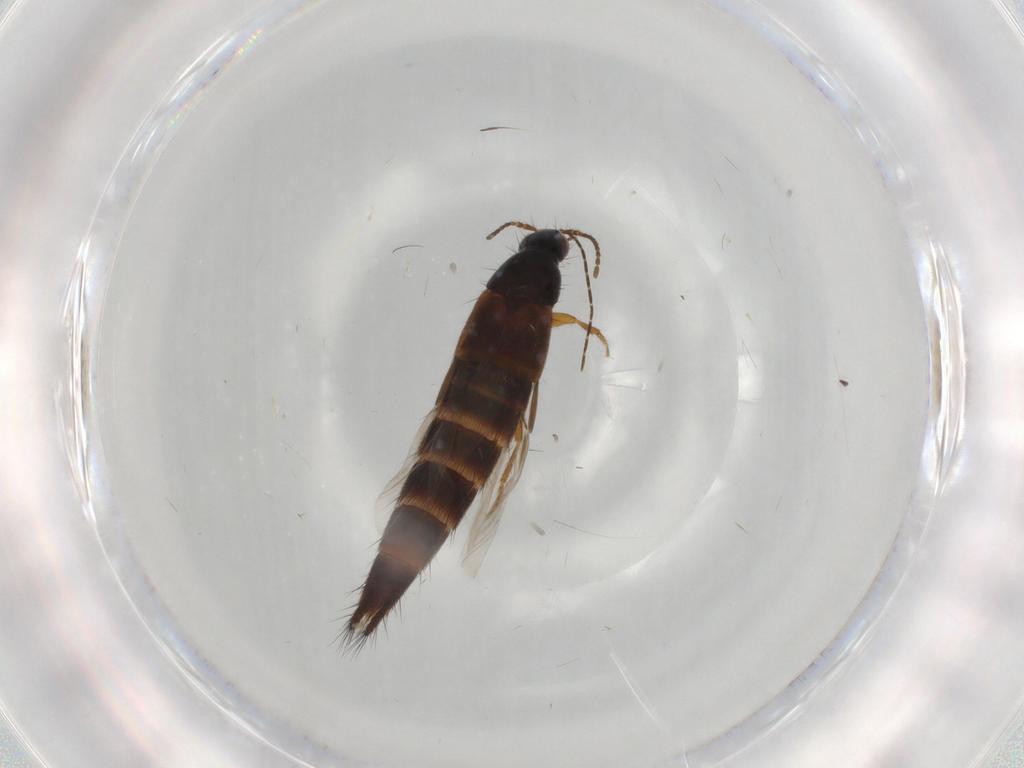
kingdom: Animalia
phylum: Arthropoda
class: Insecta
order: Coleoptera
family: Staphylinidae
